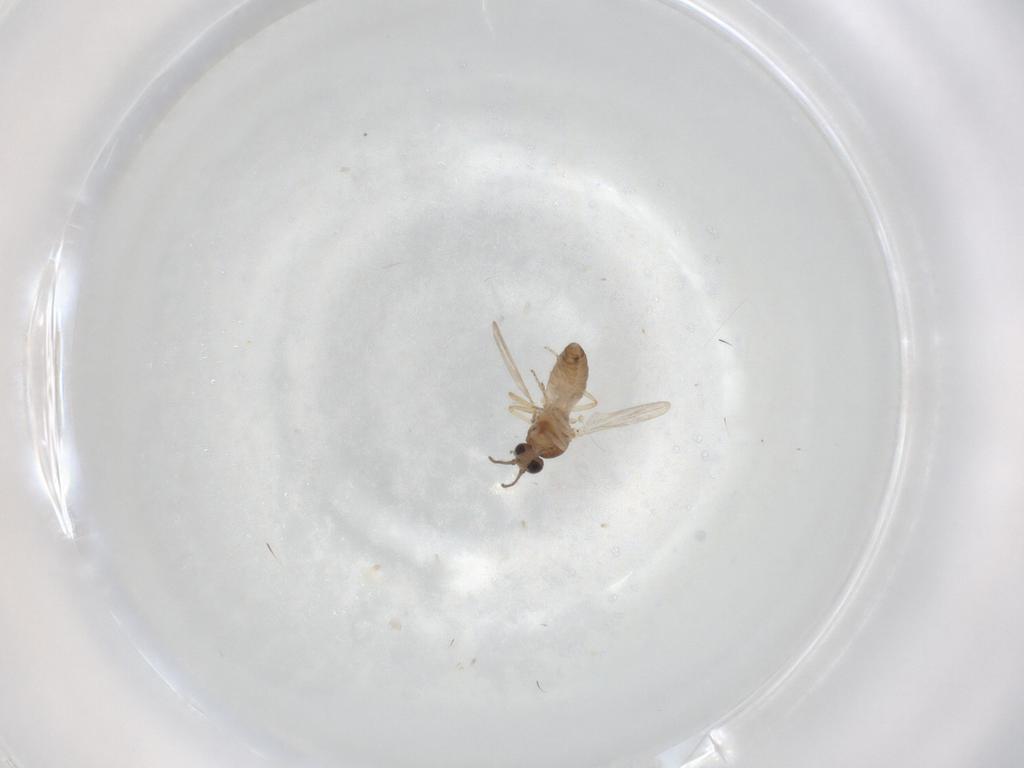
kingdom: Animalia
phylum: Arthropoda
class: Insecta
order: Diptera
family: Ceratopogonidae
